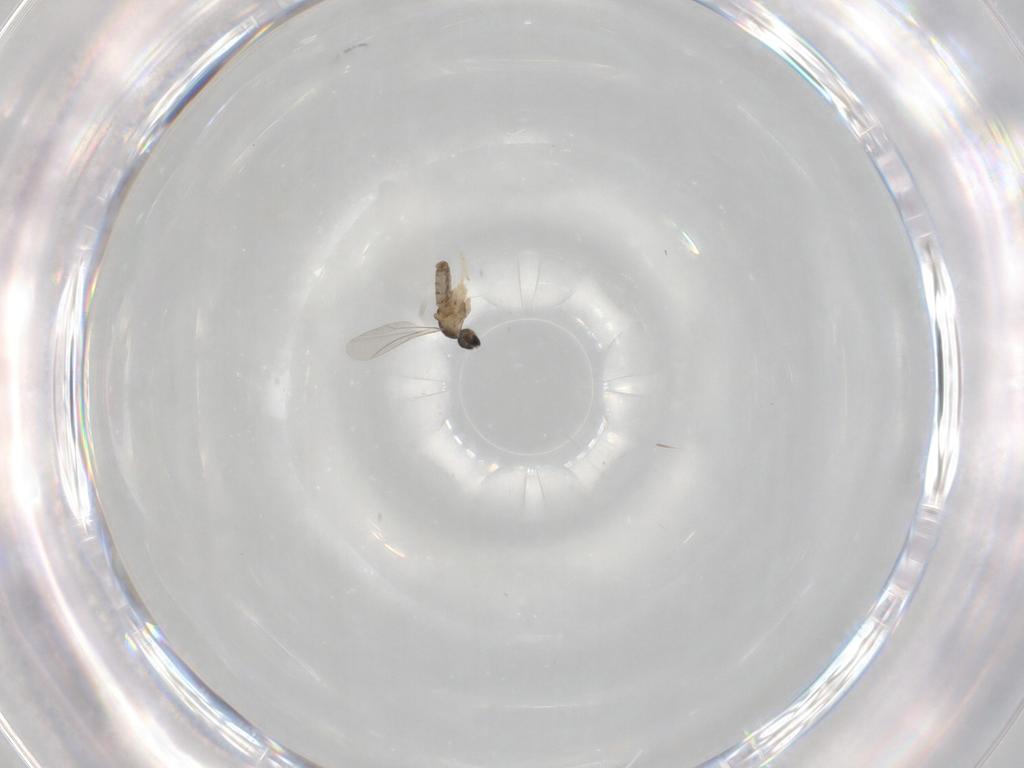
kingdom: Animalia
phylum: Arthropoda
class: Insecta
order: Diptera
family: Cecidomyiidae
